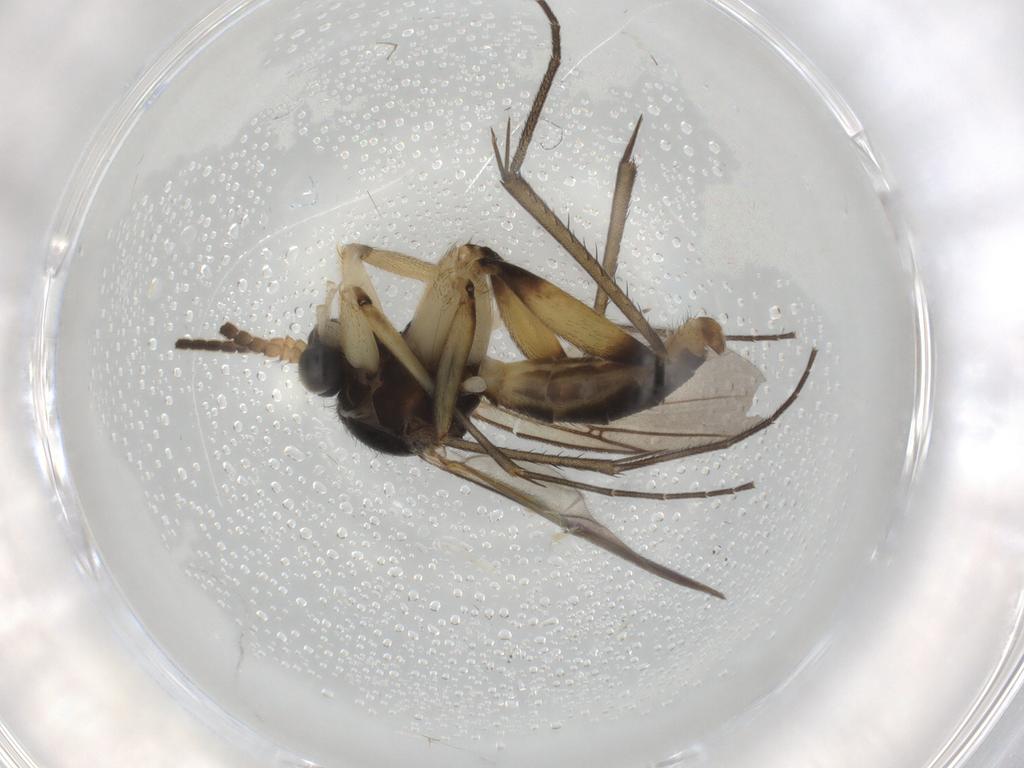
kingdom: Animalia
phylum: Arthropoda
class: Insecta
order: Diptera
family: Mycetophilidae
